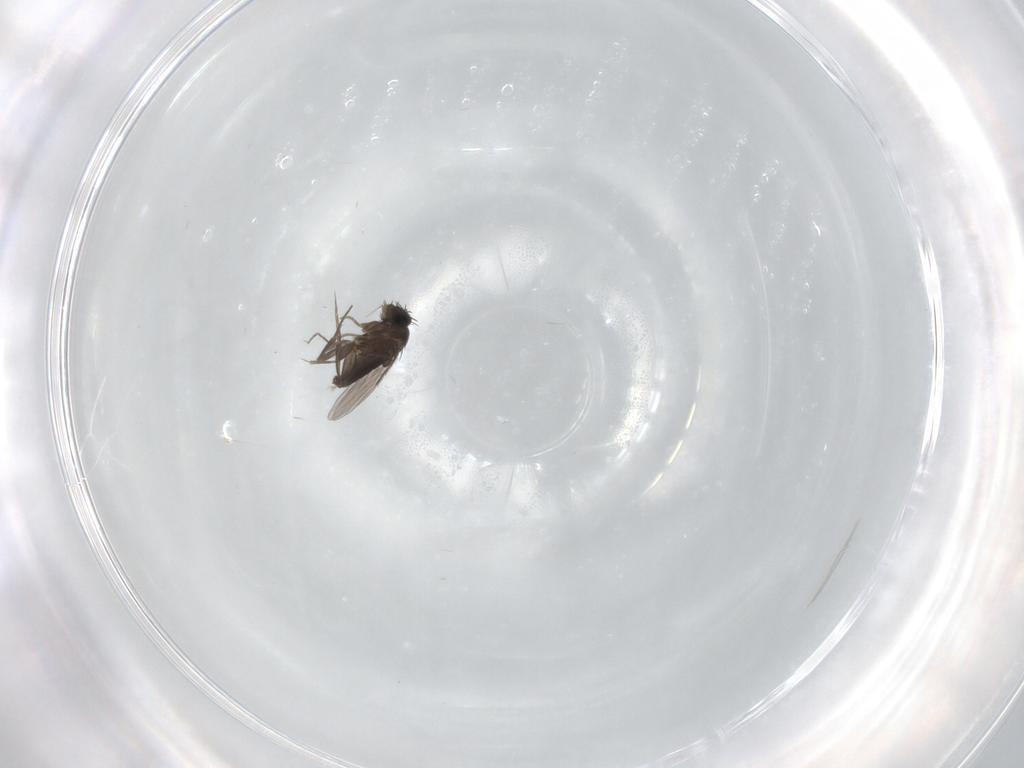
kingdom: Animalia
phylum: Arthropoda
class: Insecta
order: Diptera
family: Phoridae
